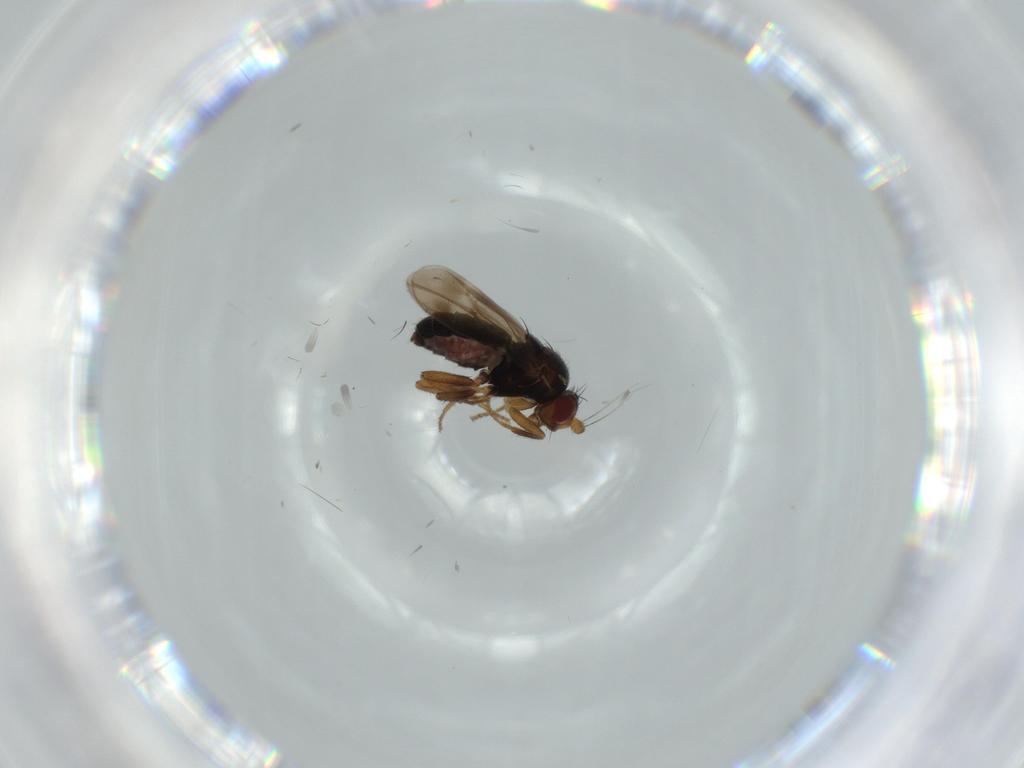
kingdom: Animalia
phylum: Arthropoda
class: Insecta
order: Diptera
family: Sphaeroceridae
